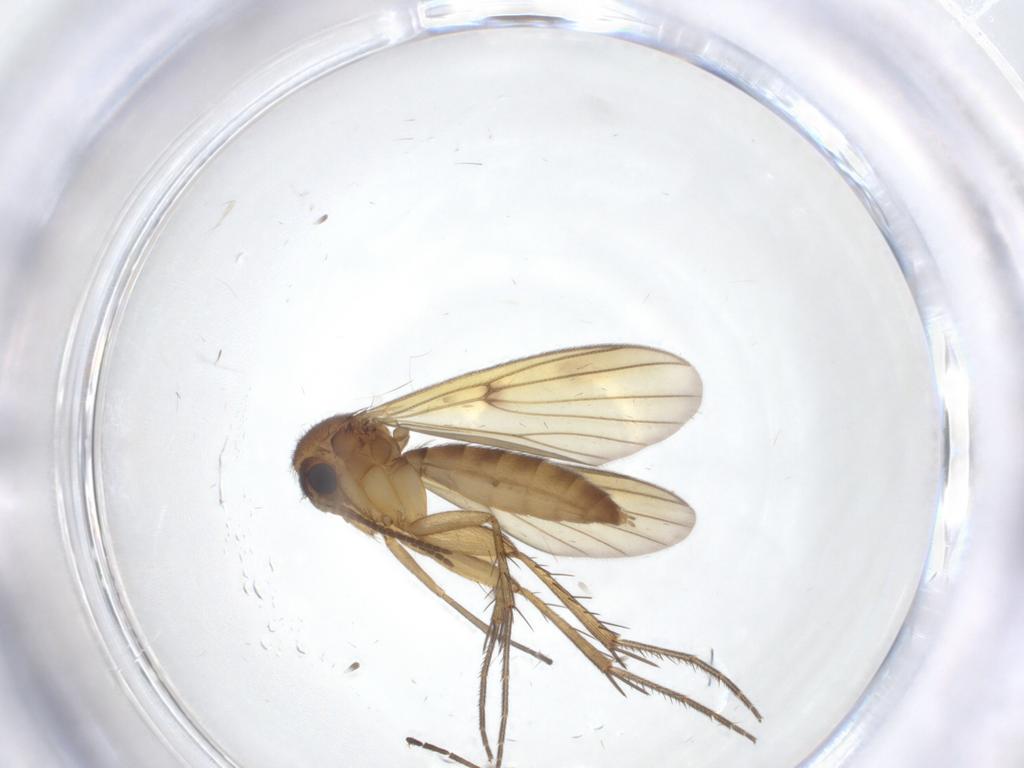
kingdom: Animalia
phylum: Arthropoda
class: Insecta
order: Diptera
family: Mycetophilidae
